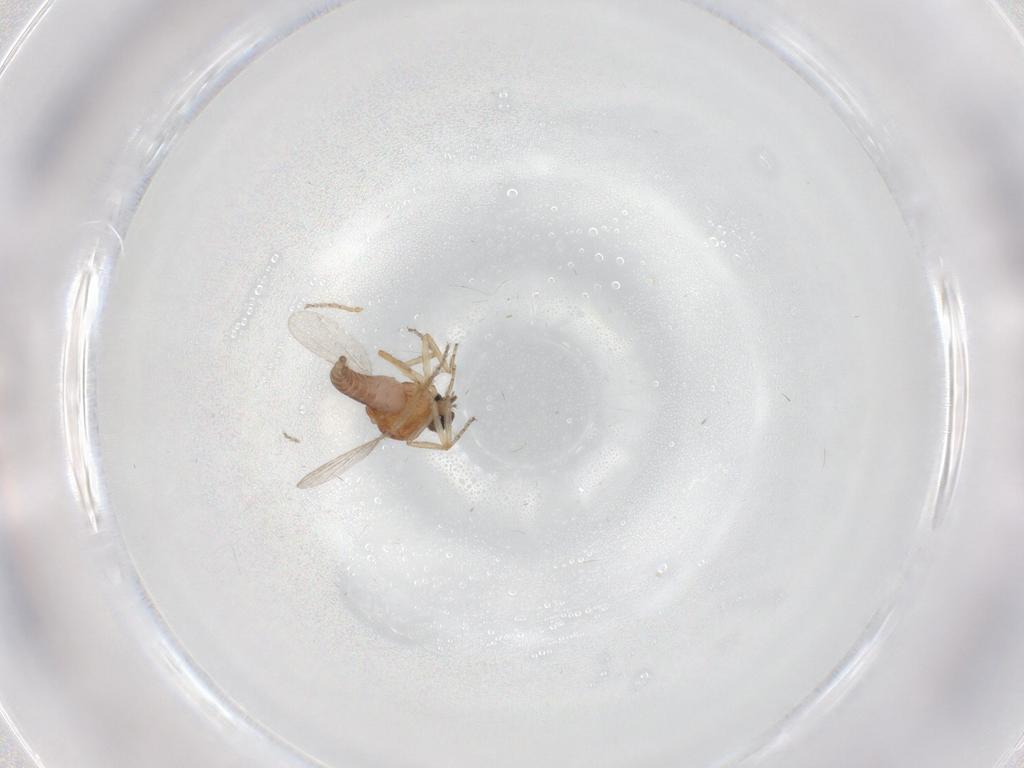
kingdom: Animalia
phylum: Arthropoda
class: Insecta
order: Diptera
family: Ceratopogonidae
